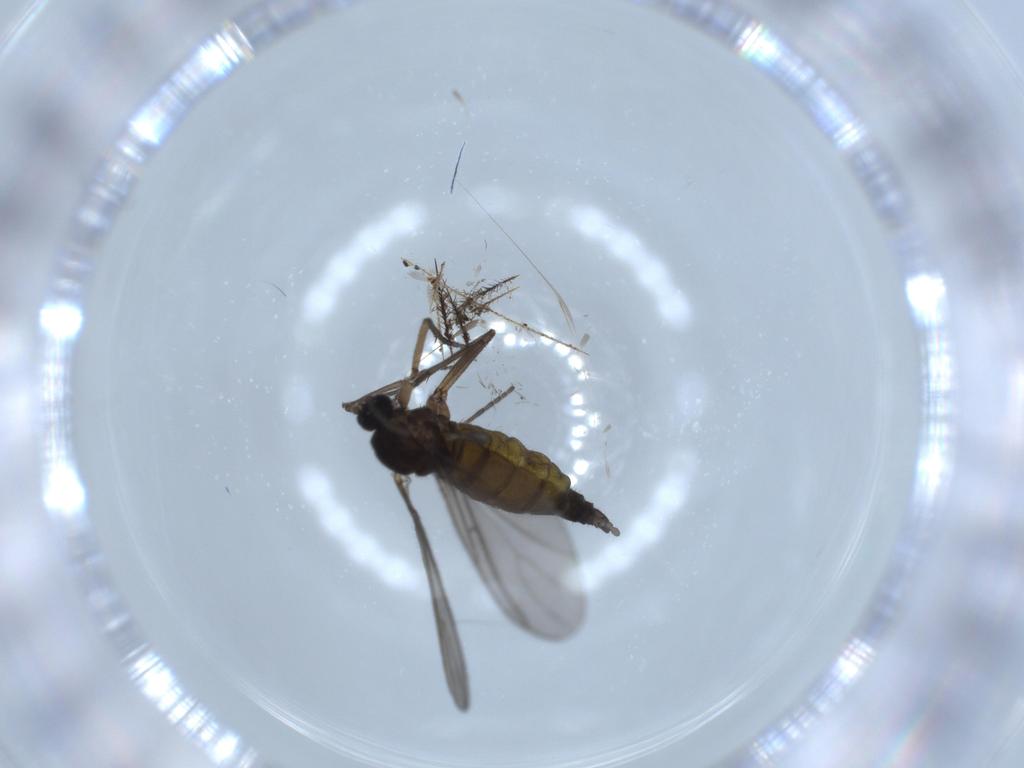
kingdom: Animalia
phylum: Arthropoda
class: Insecta
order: Diptera
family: Sciaridae
